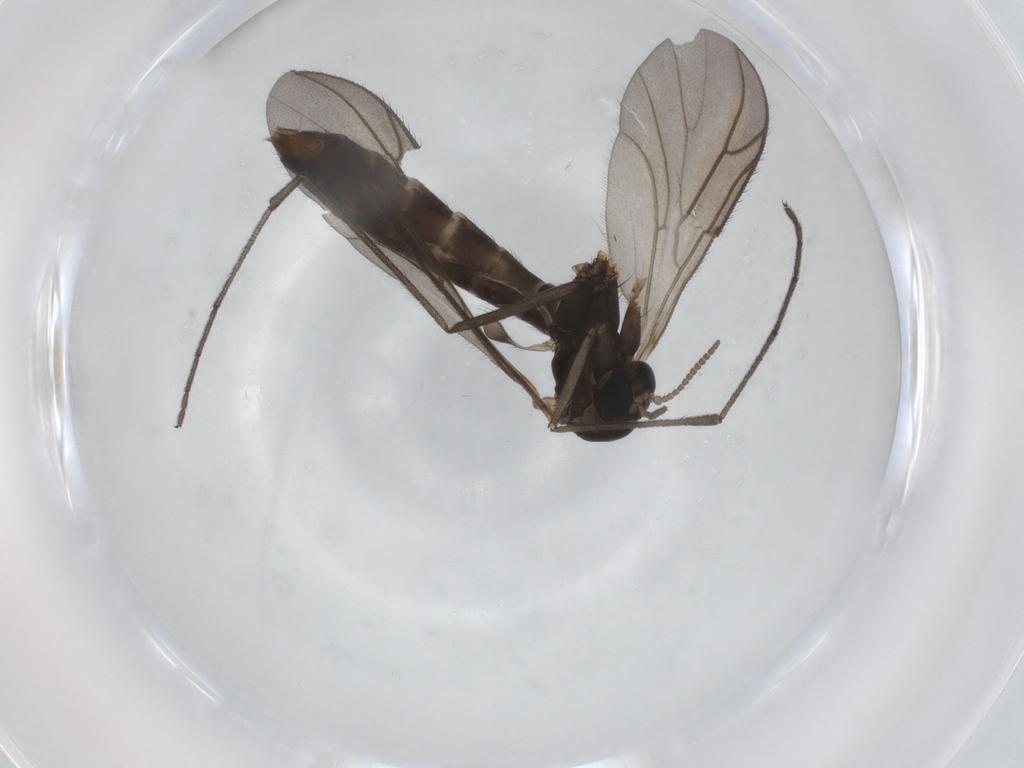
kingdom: Animalia
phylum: Arthropoda
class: Insecta
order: Diptera
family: Ditomyiidae
